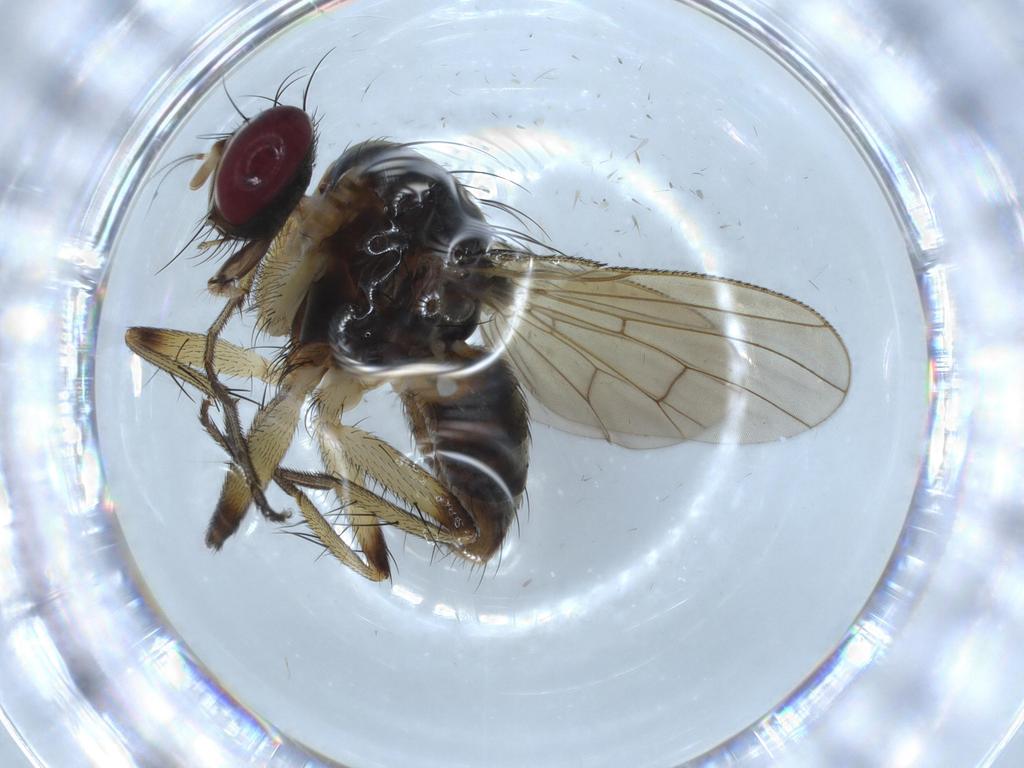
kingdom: Animalia
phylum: Arthropoda
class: Insecta
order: Diptera
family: Muscidae
